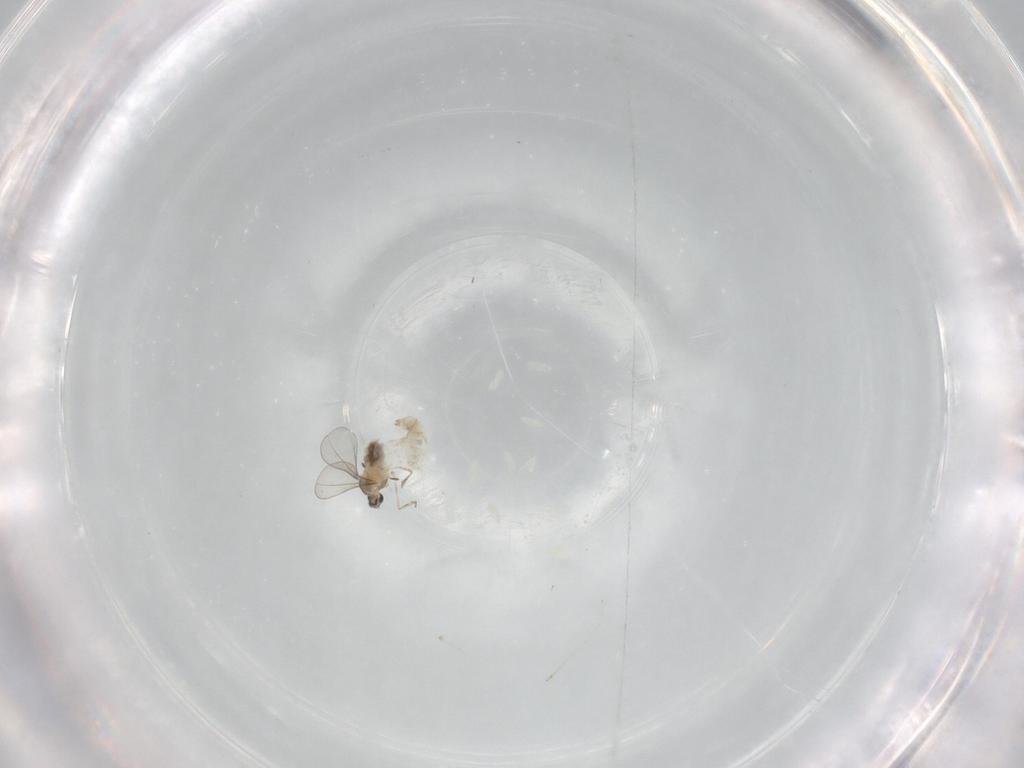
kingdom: Animalia
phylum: Arthropoda
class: Insecta
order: Diptera
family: Cecidomyiidae
